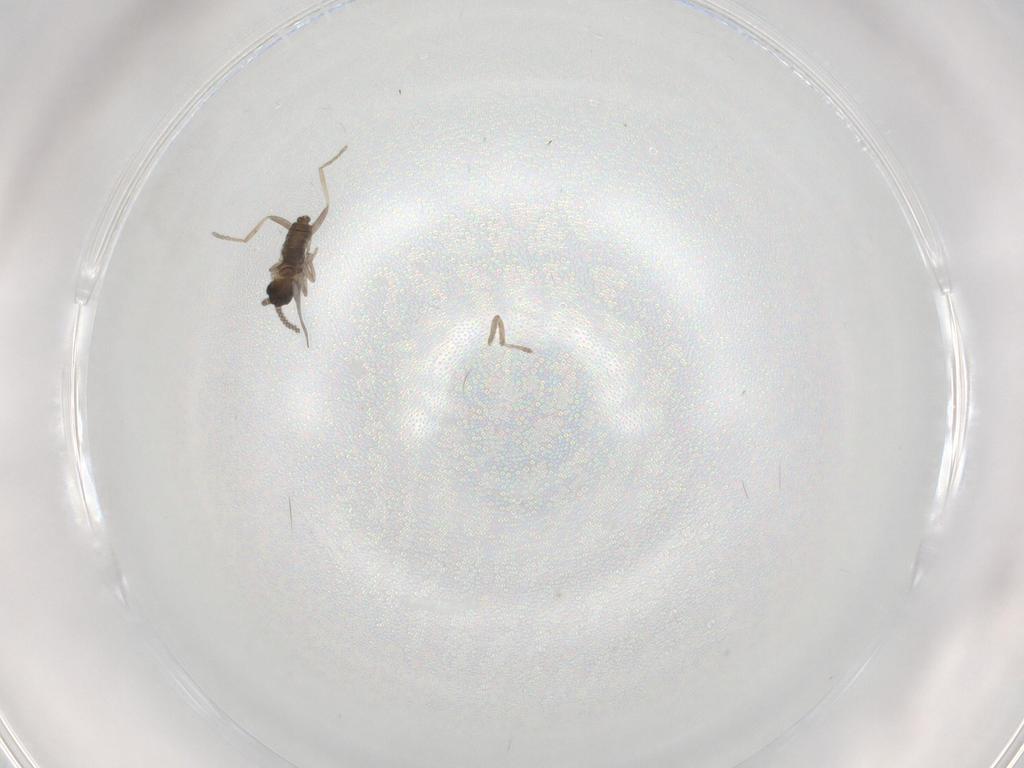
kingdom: Animalia
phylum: Arthropoda
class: Insecta
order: Diptera
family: Cecidomyiidae
